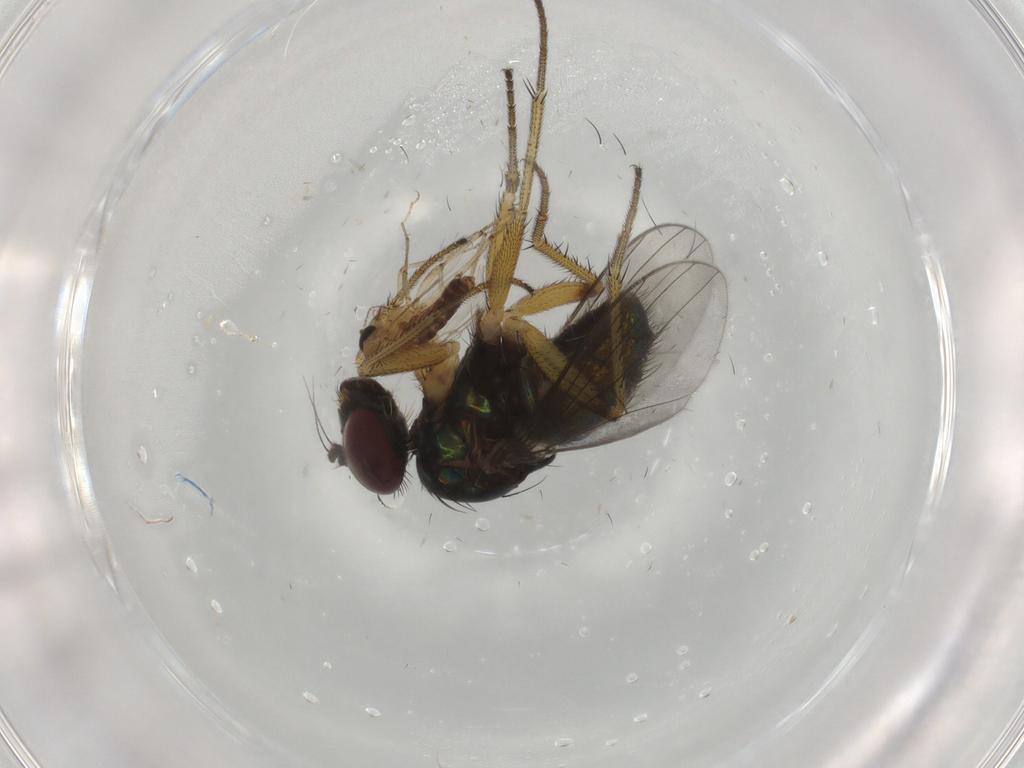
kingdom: Animalia
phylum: Arthropoda
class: Insecta
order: Diptera
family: Dolichopodidae
